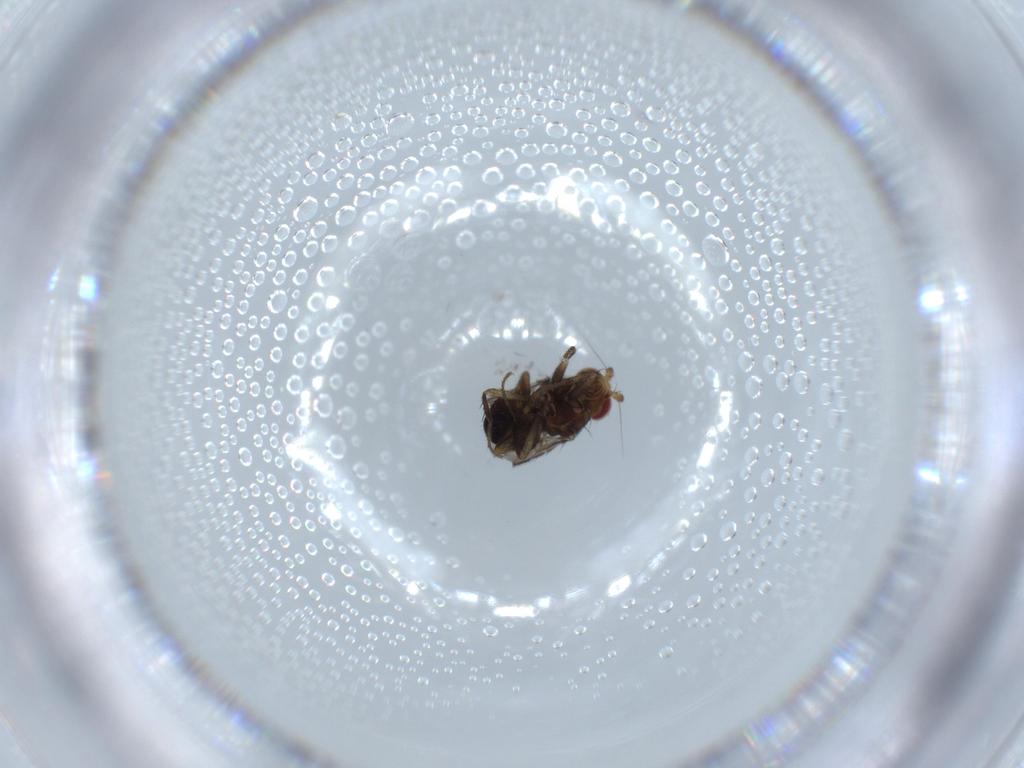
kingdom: Animalia
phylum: Arthropoda
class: Insecta
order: Diptera
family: Sphaeroceridae
